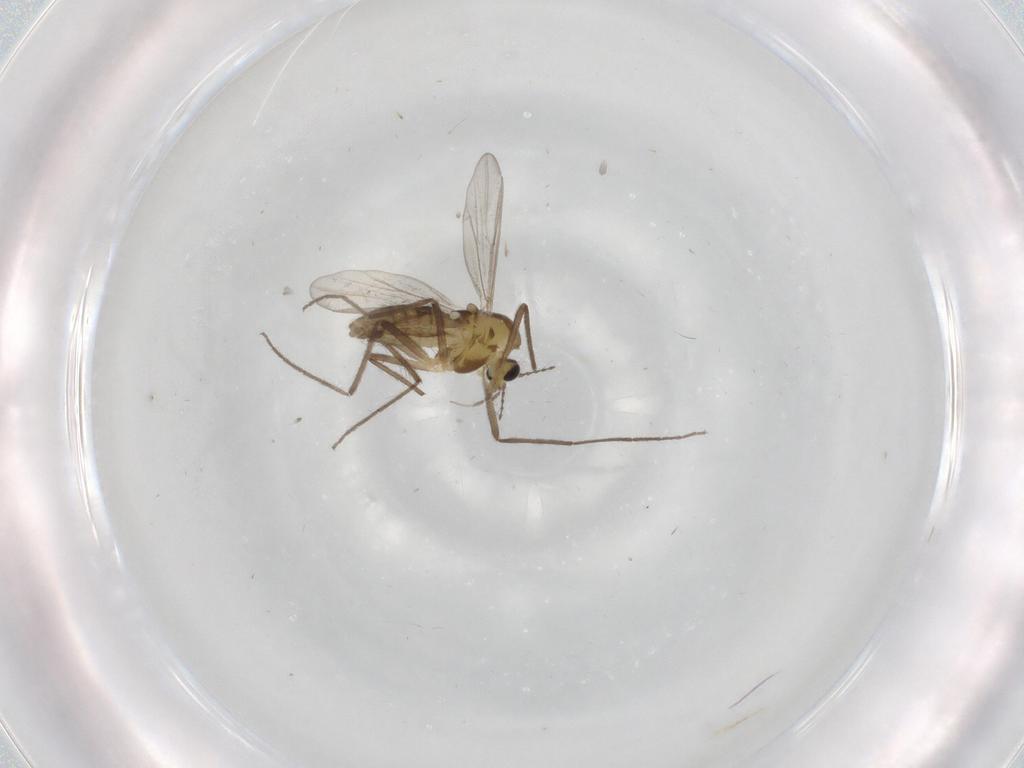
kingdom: Animalia
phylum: Arthropoda
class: Insecta
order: Diptera
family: Chironomidae
